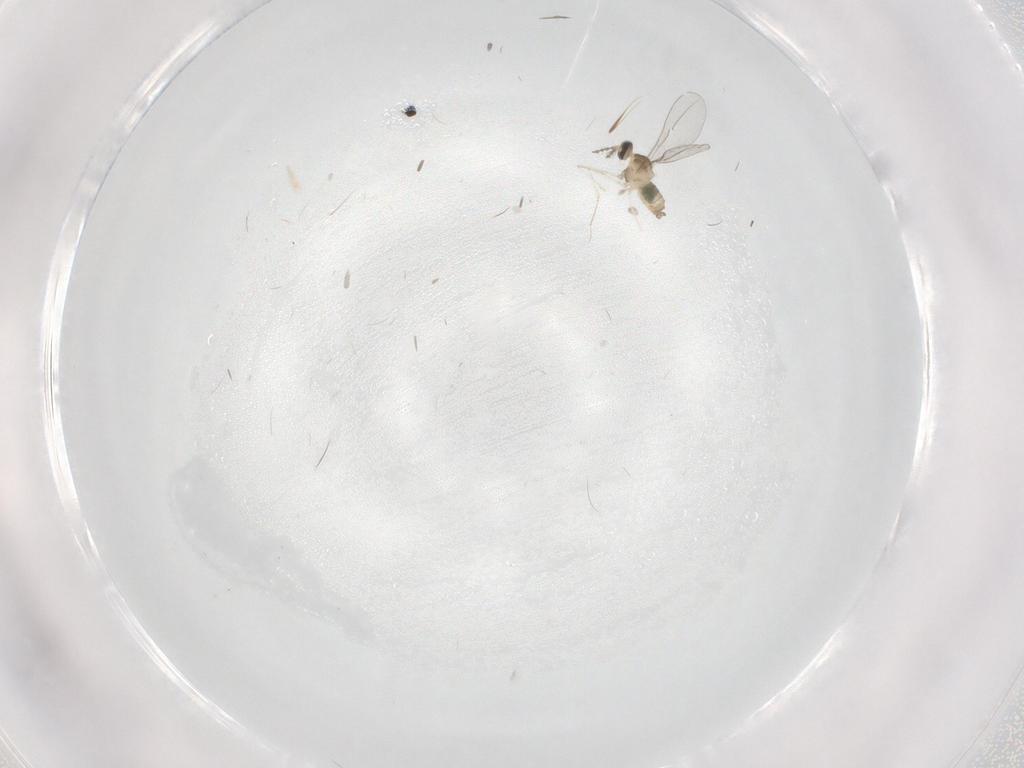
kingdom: Animalia
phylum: Arthropoda
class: Insecta
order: Diptera
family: Cecidomyiidae
